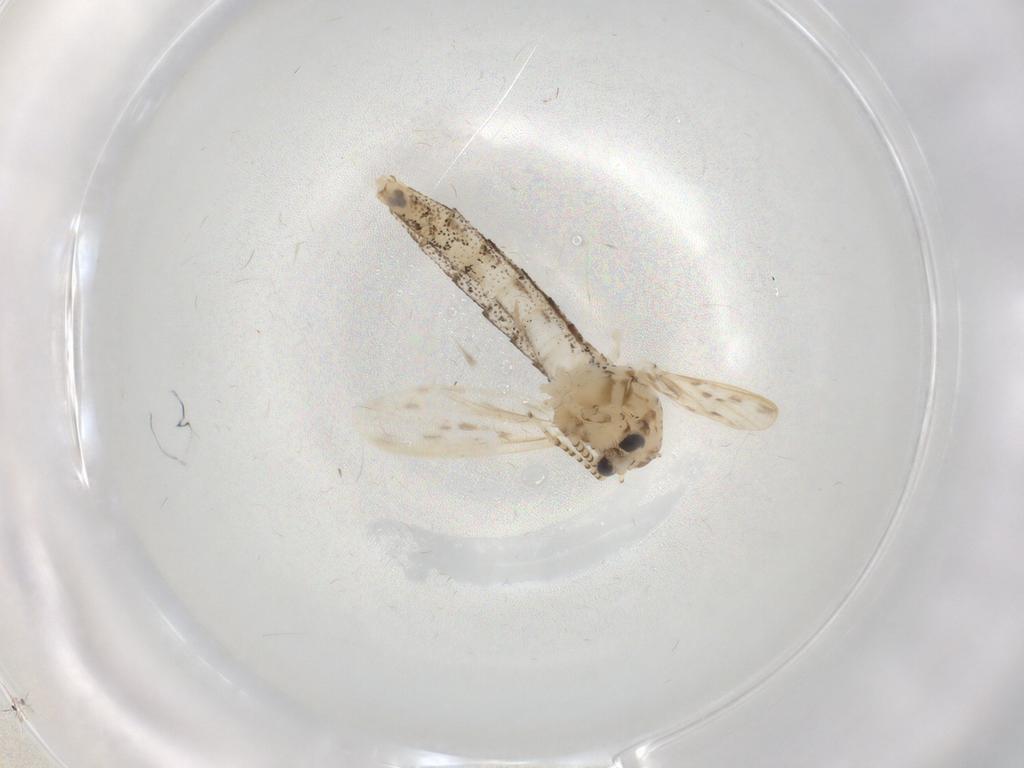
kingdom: Animalia
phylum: Arthropoda
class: Insecta
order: Diptera
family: Chaoboridae
